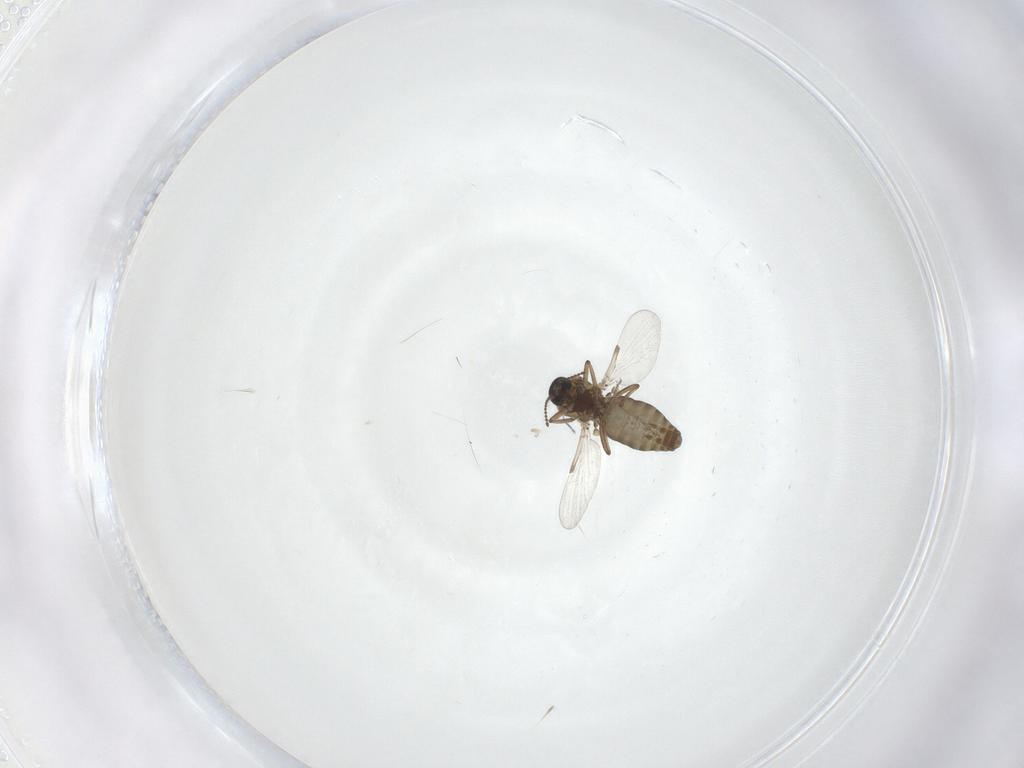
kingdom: Animalia
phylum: Arthropoda
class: Insecta
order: Diptera
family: Ceratopogonidae
